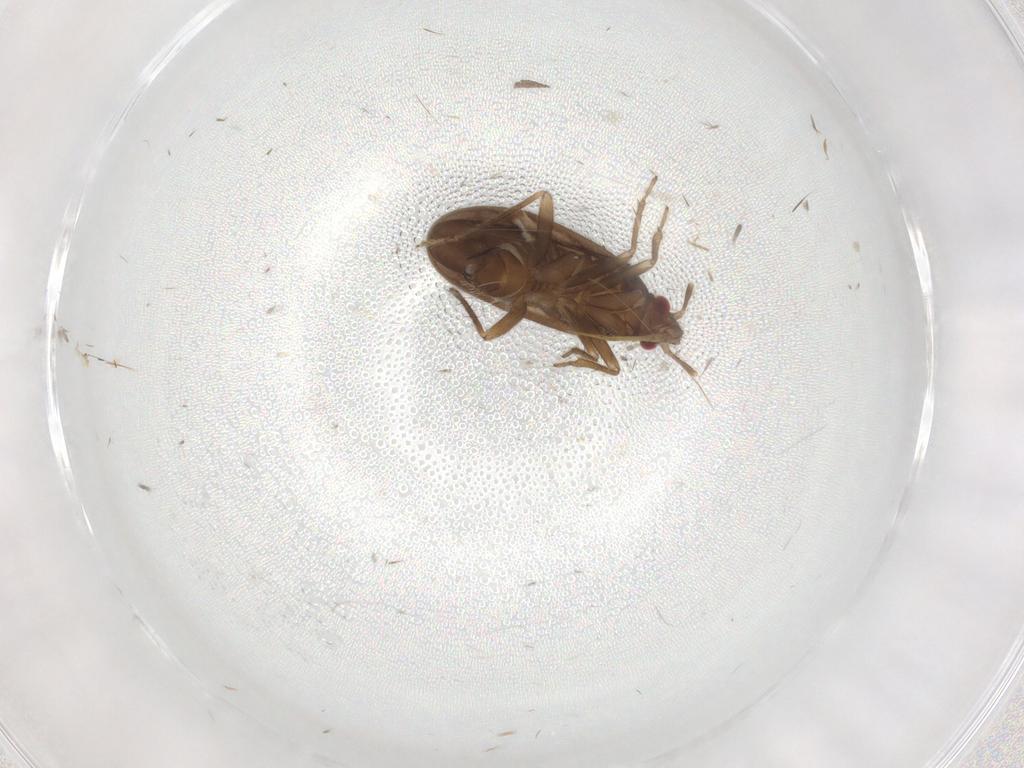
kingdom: Animalia
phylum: Arthropoda
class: Insecta
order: Hemiptera
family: Ceratocombidae
